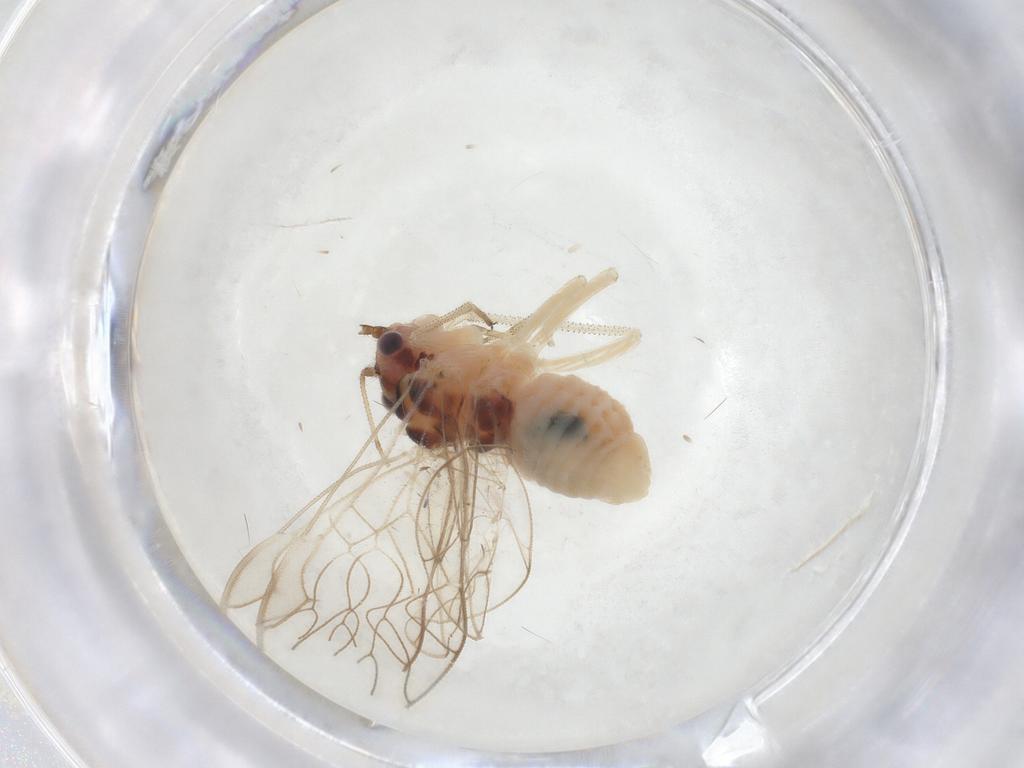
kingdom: Animalia
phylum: Arthropoda
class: Insecta
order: Psocodea
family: Amphipsocidae
